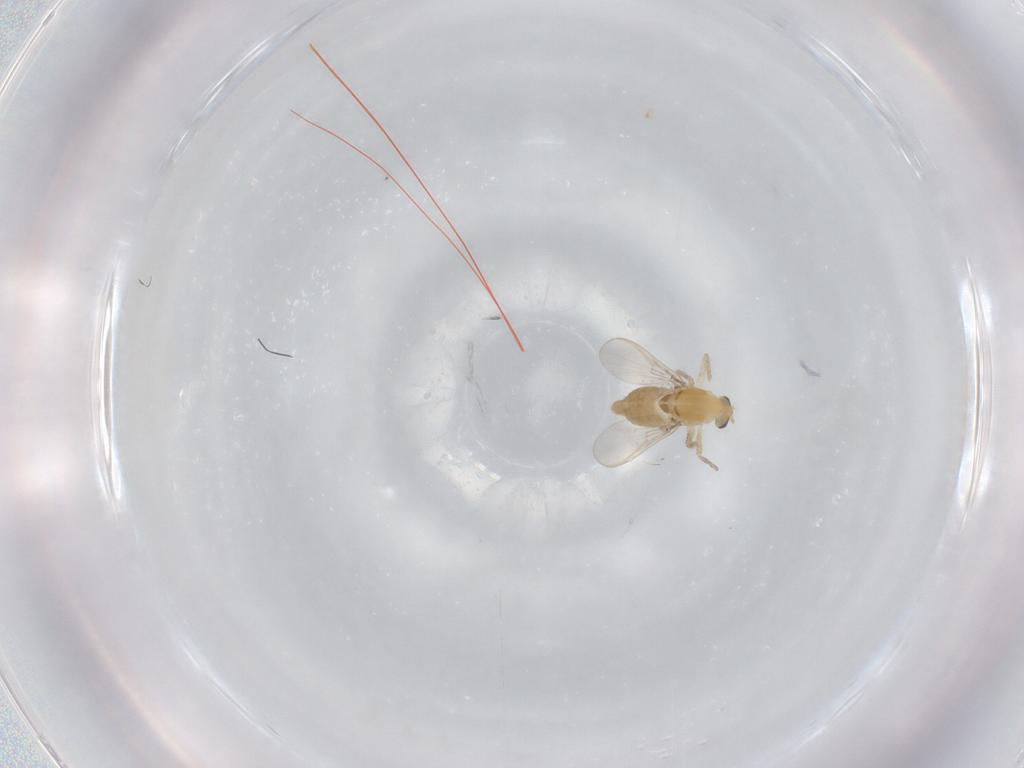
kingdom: Animalia
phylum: Arthropoda
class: Insecta
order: Diptera
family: Chironomidae
